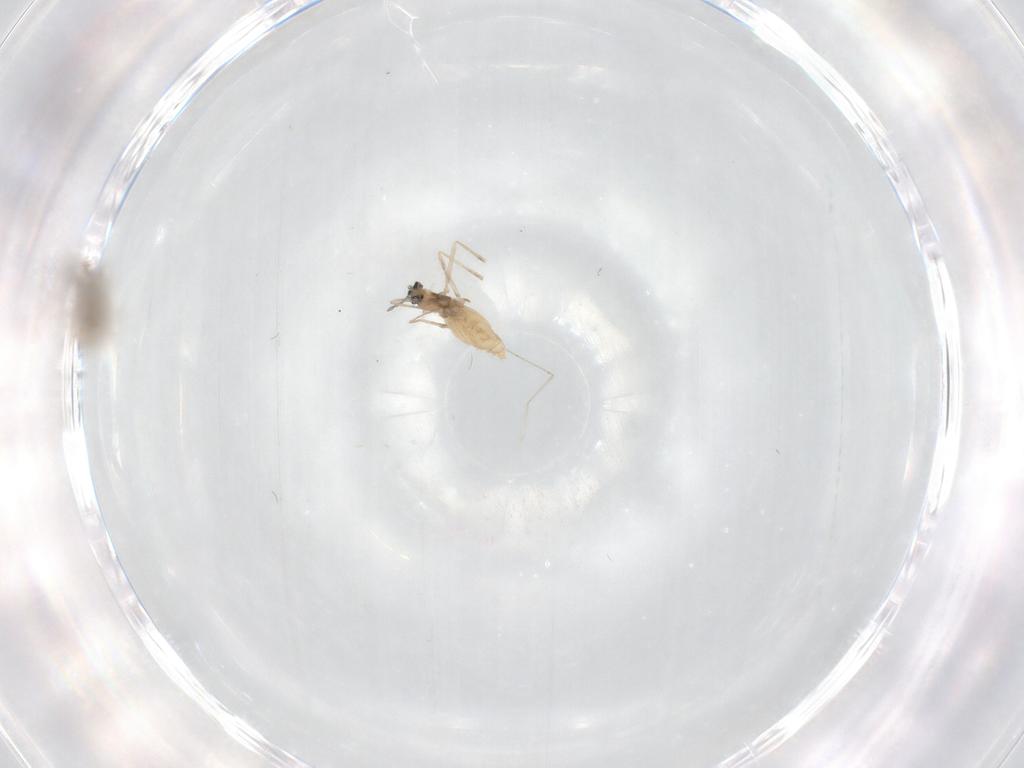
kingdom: Animalia
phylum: Arthropoda
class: Insecta
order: Diptera
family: Cecidomyiidae
